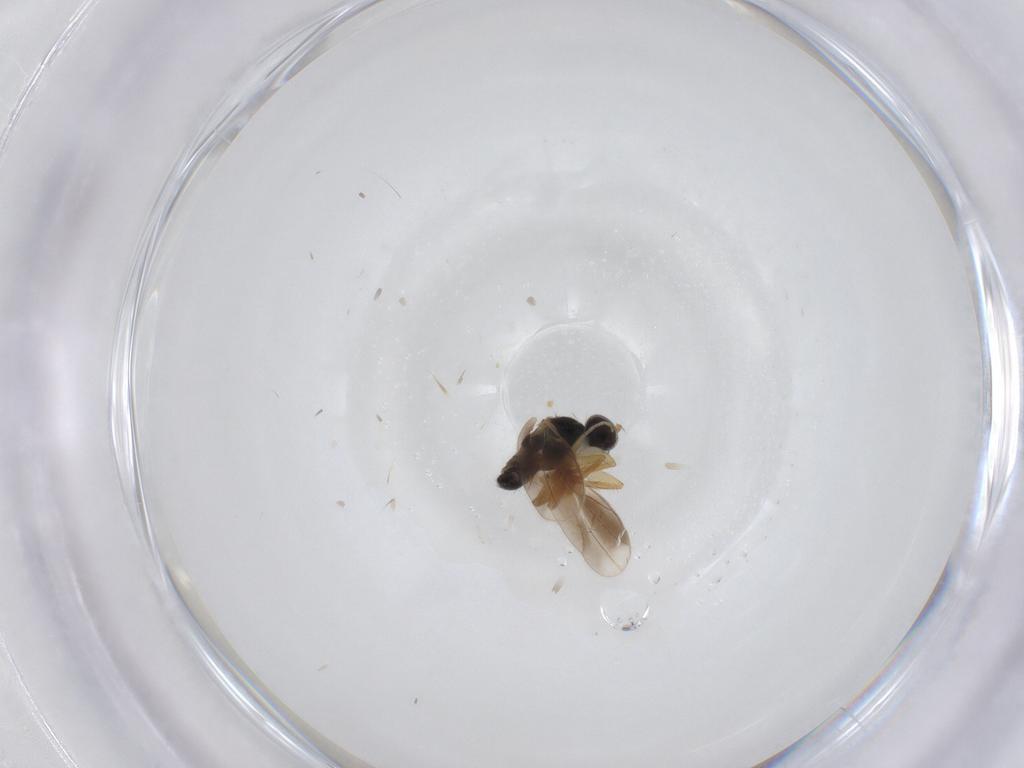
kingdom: Animalia
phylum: Arthropoda
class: Insecta
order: Diptera
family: Hybotidae
